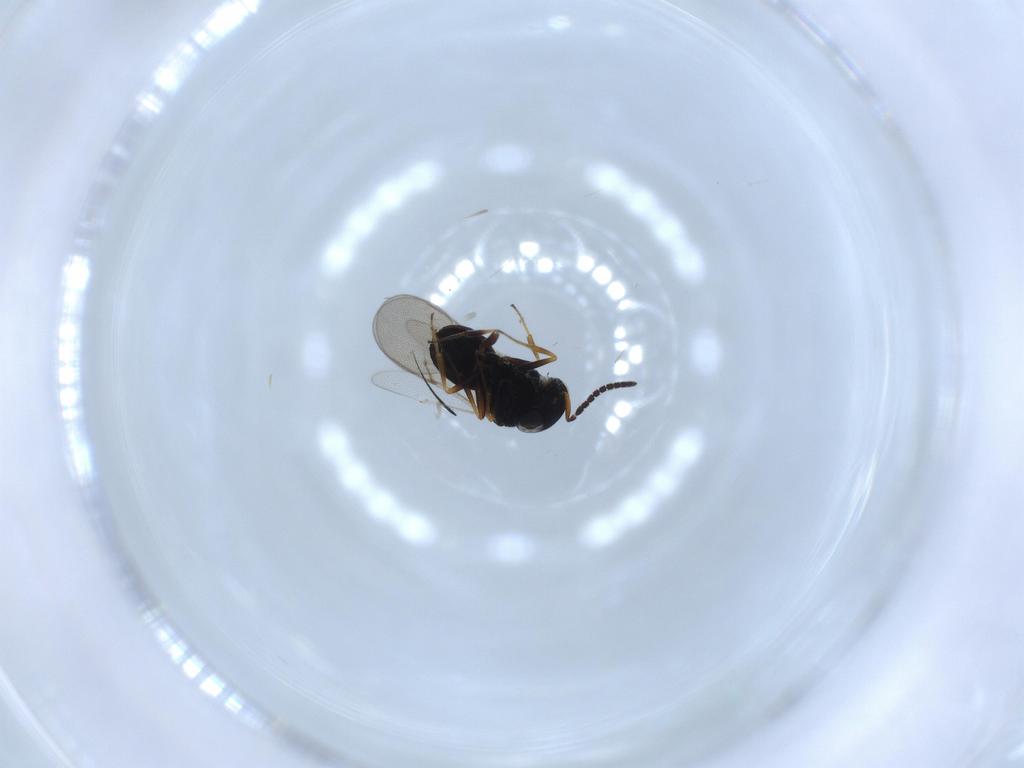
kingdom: Animalia
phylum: Arthropoda
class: Insecta
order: Hymenoptera
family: Scelionidae
